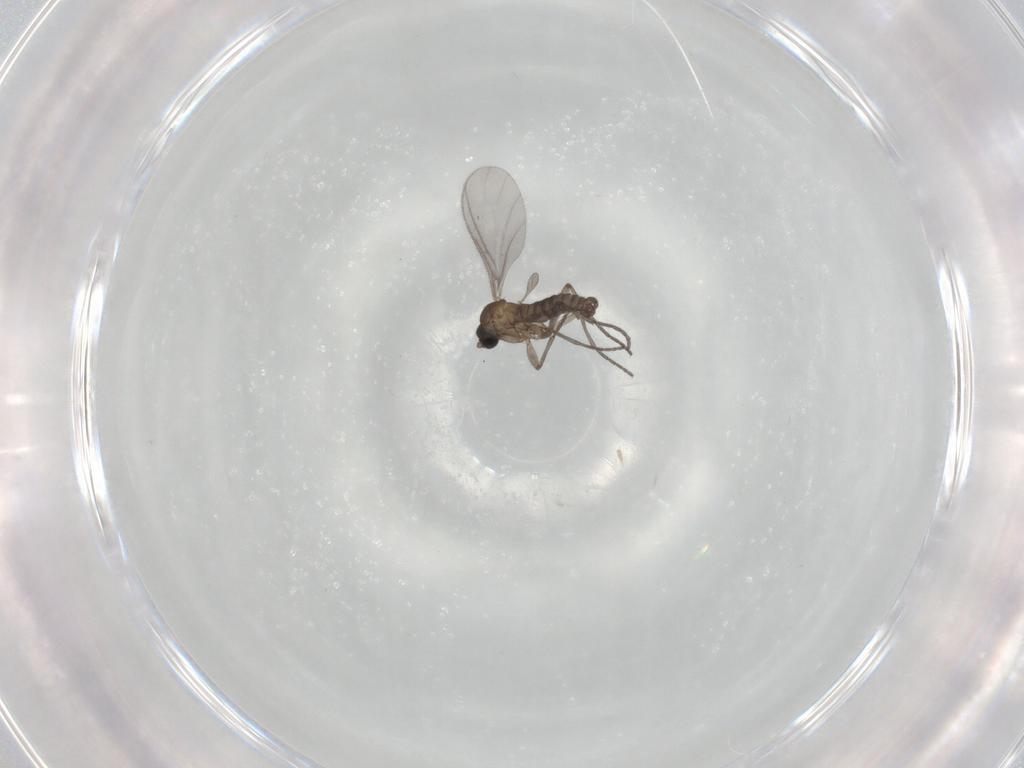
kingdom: Animalia
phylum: Arthropoda
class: Insecta
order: Diptera
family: Sciaridae
